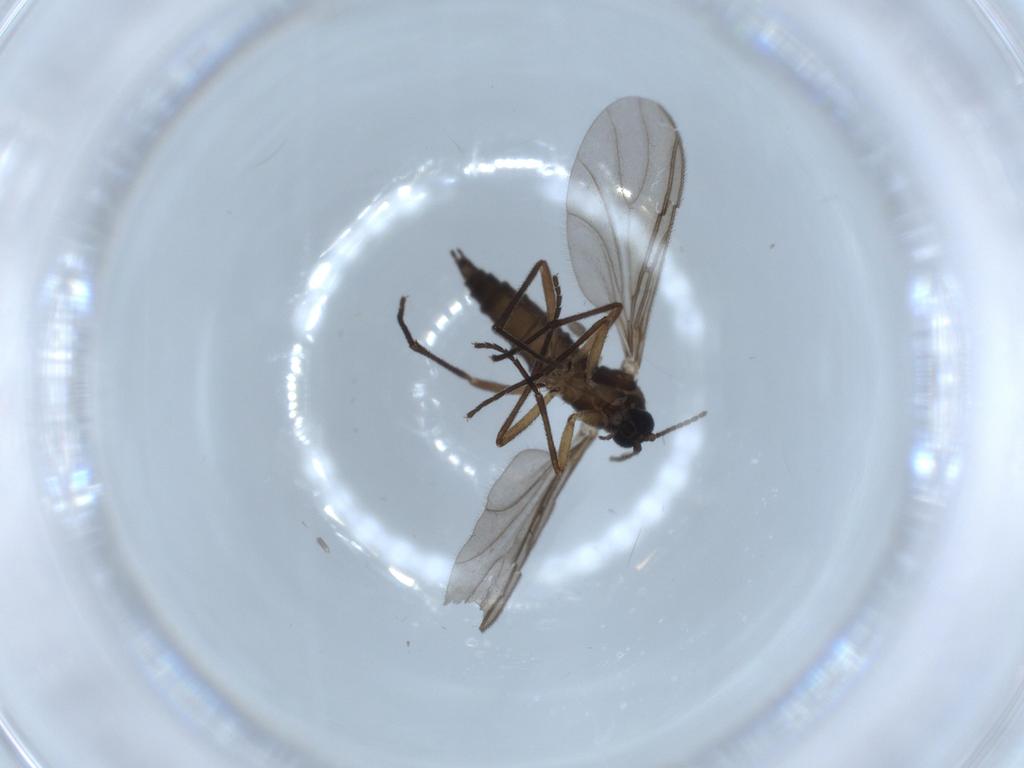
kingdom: Animalia
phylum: Arthropoda
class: Insecta
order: Diptera
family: Sciaridae
